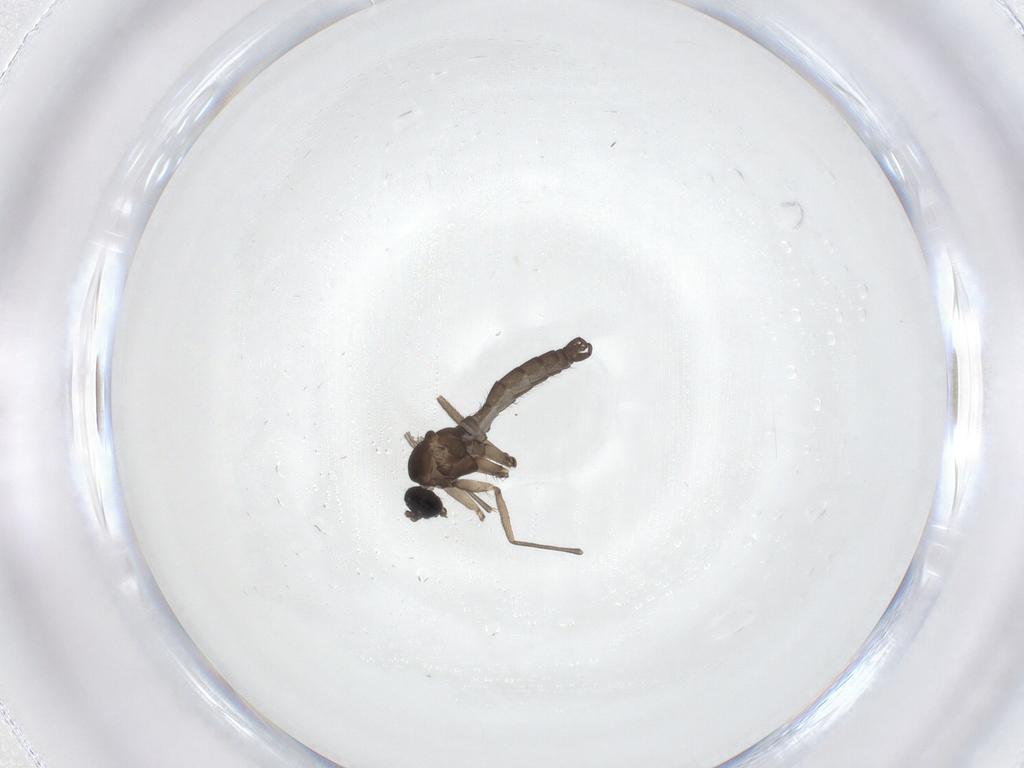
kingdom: Animalia
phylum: Arthropoda
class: Insecta
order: Diptera
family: Sciaridae
